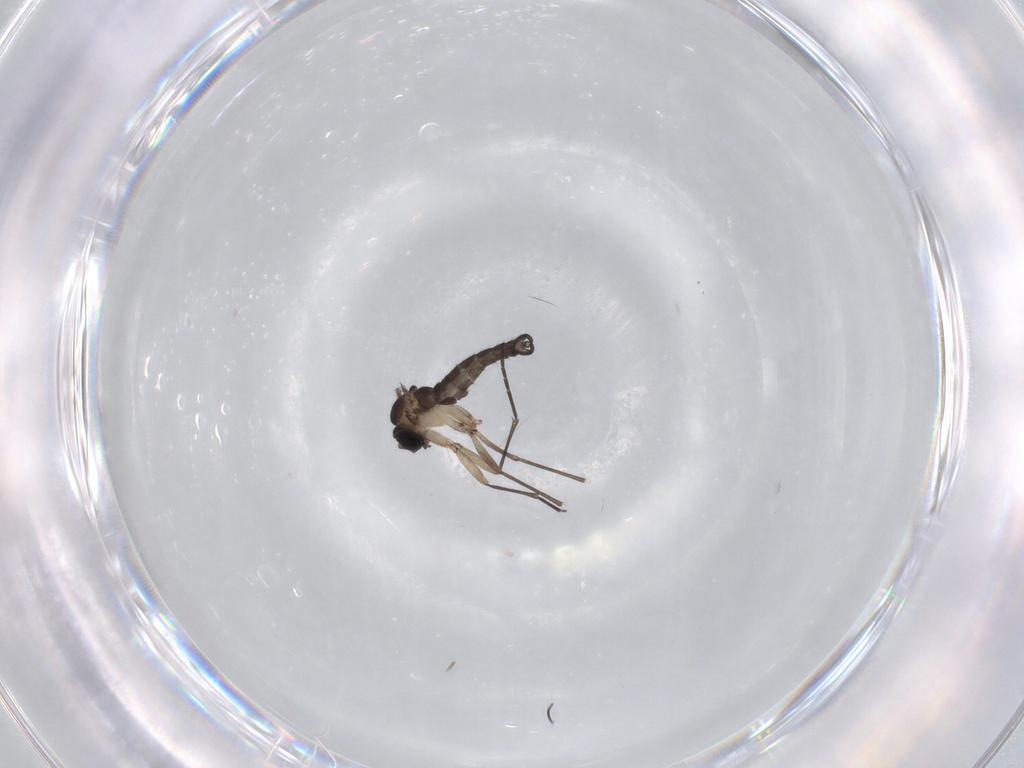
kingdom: Animalia
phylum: Arthropoda
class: Insecta
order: Diptera
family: Sciaridae
